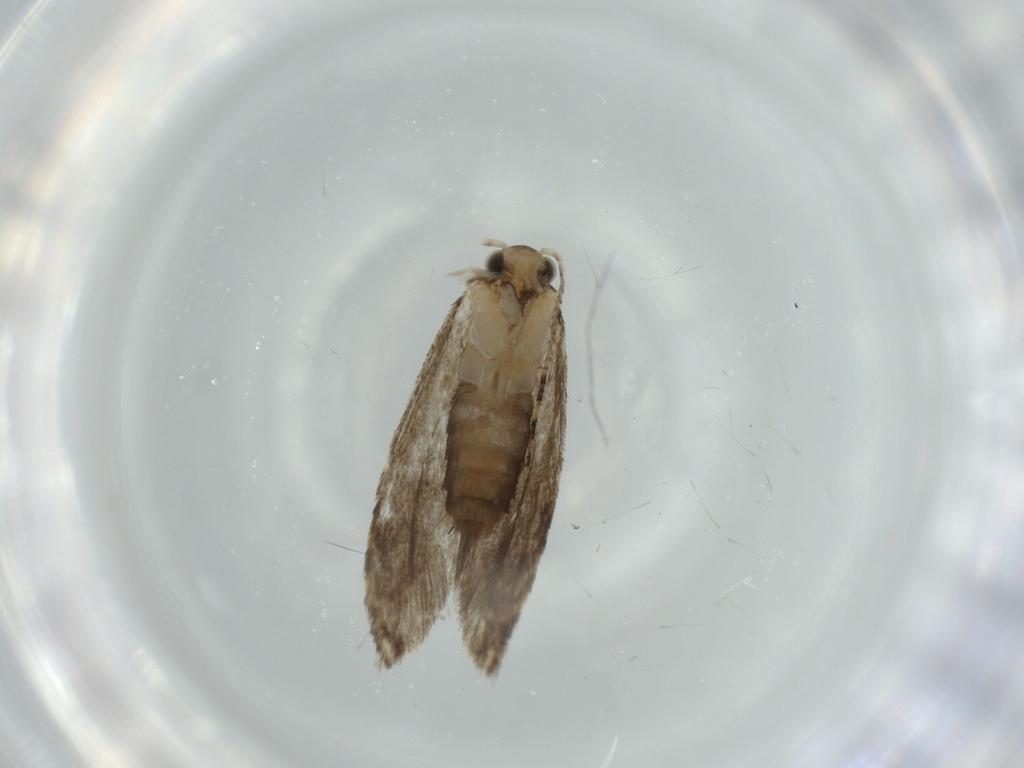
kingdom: Animalia
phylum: Arthropoda
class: Insecta
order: Lepidoptera
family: Tineidae
